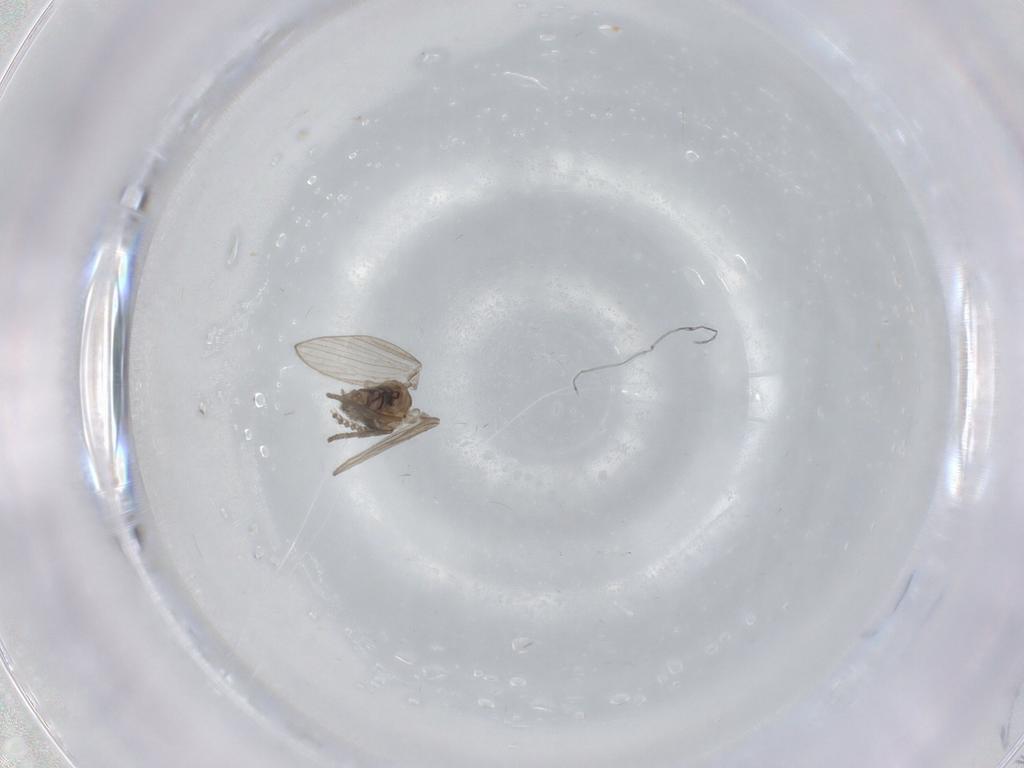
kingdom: Animalia
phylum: Arthropoda
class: Insecta
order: Diptera
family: Psychodidae
